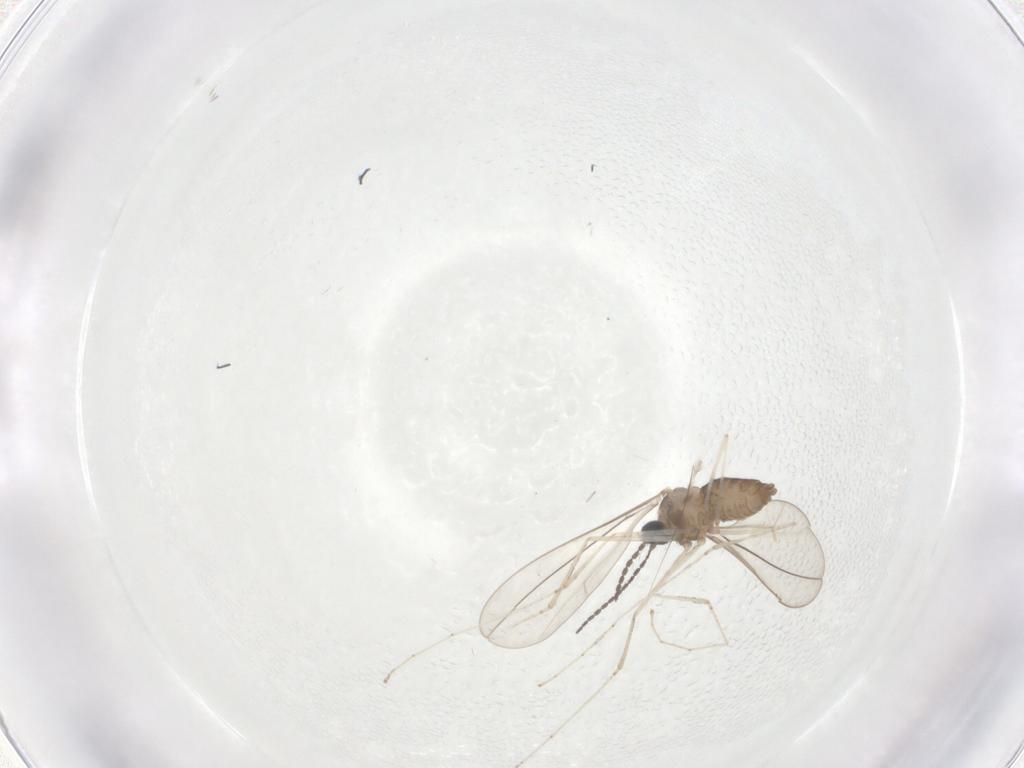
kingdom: Animalia
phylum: Arthropoda
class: Insecta
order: Diptera
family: Cecidomyiidae
